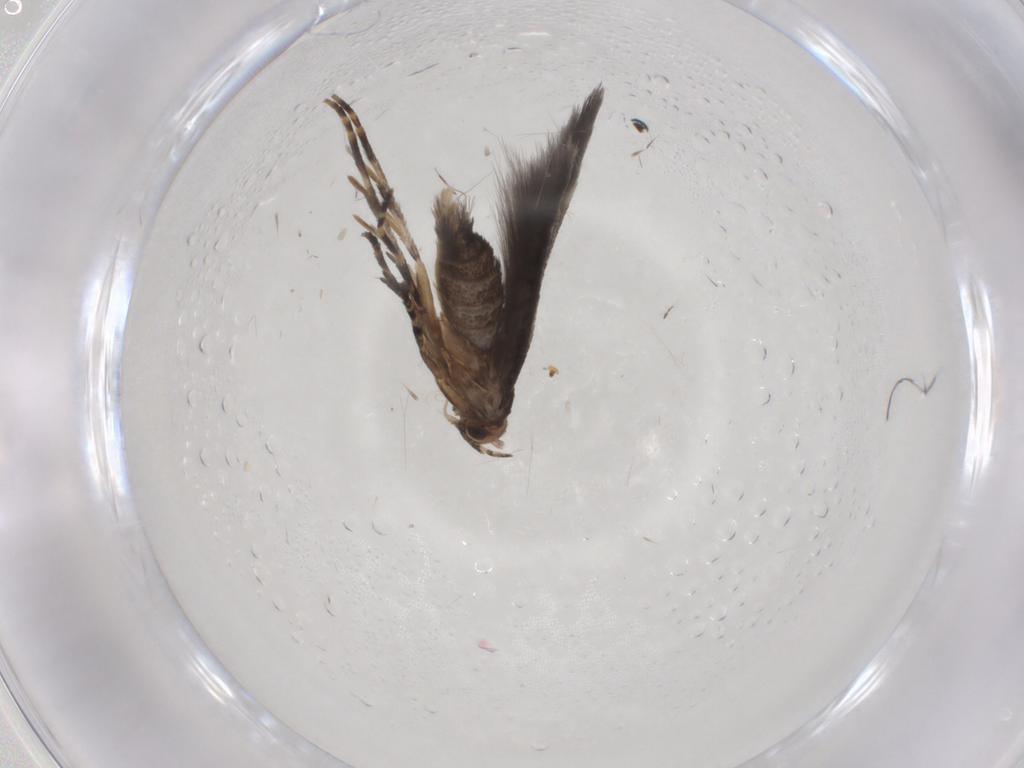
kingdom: Animalia
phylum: Arthropoda
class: Insecta
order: Lepidoptera
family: Elachistidae
